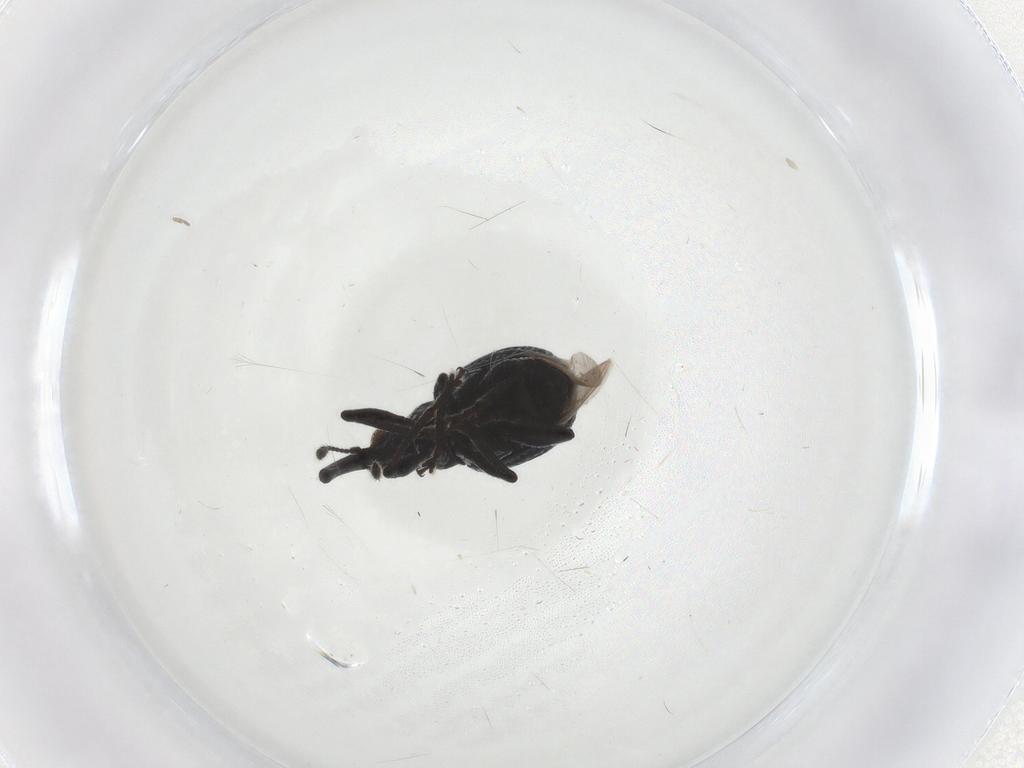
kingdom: Animalia
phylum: Arthropoda
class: Insecta
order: Coleoptera
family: Brentidae
